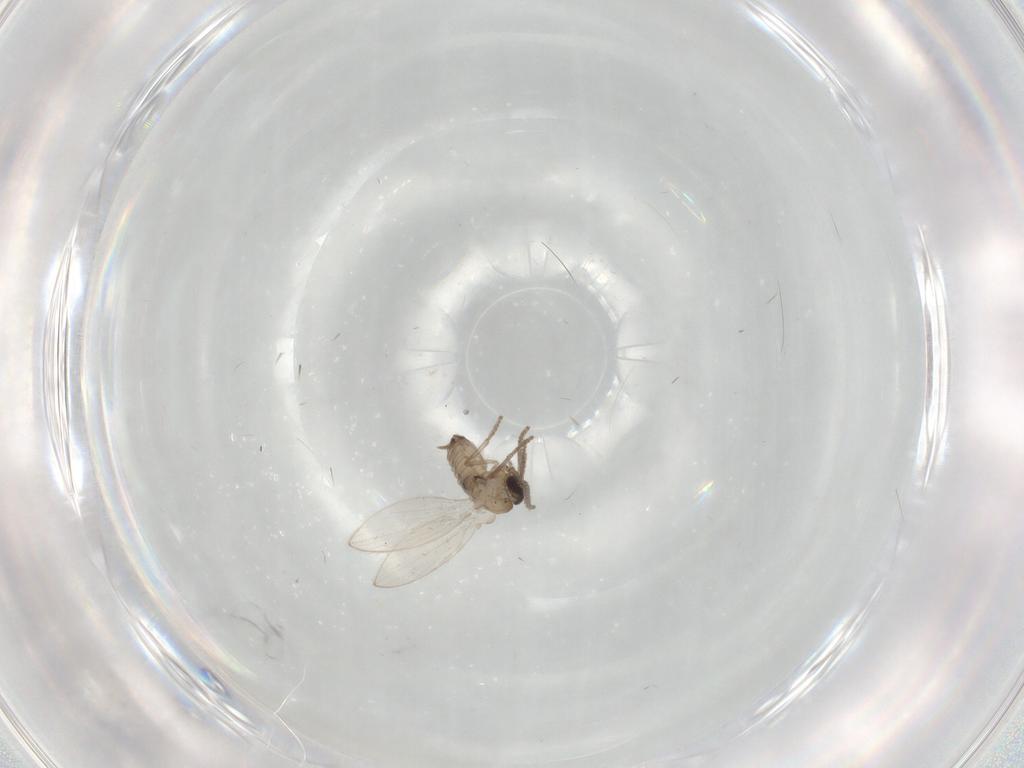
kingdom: Animalia
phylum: Arthropoda
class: Insecta
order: Diptera
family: Psychodidae
